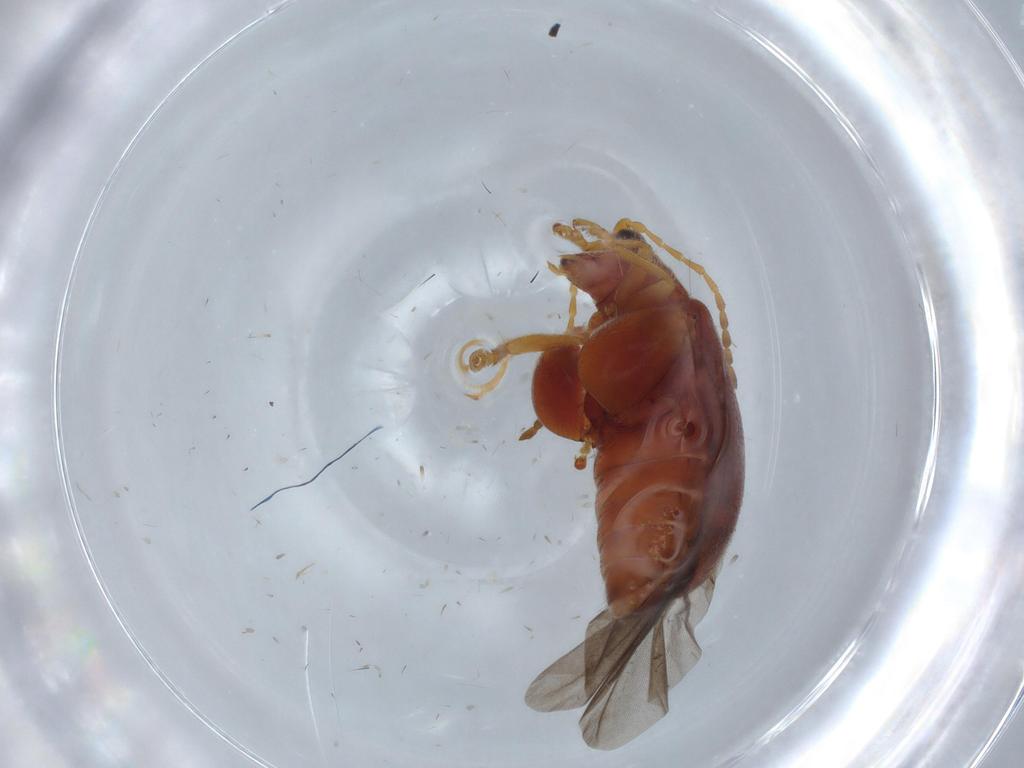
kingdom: Animalia
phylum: Arthropoda
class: Insecta
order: Coleoptera
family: Chrysomelidae
